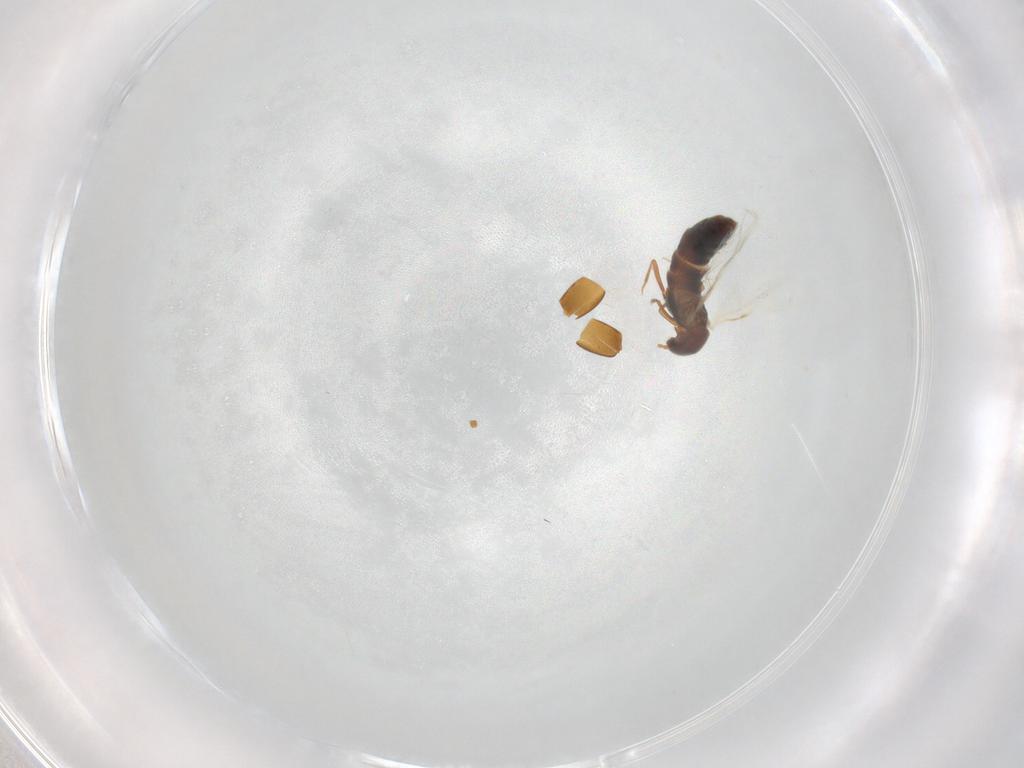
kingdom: Animalia
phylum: Arthropoda
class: Insecta
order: Coleoptera
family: Staphylinidae
